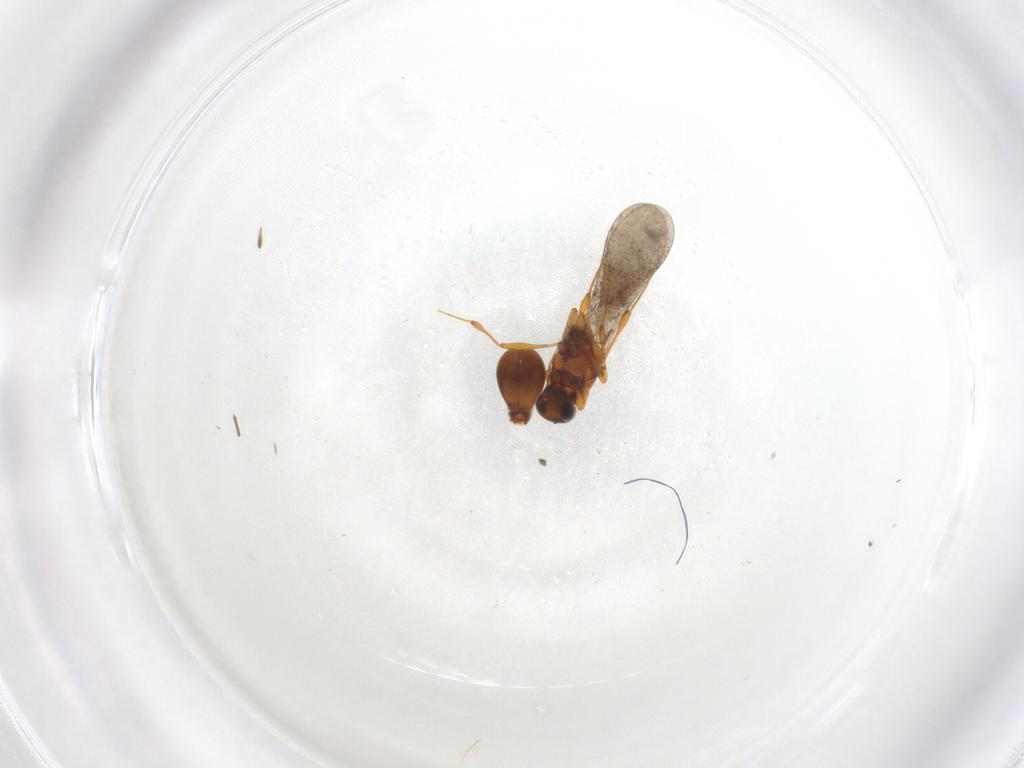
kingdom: Animalia
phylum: Arthropoda
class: Insecta
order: Diptera
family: Chironomidae
